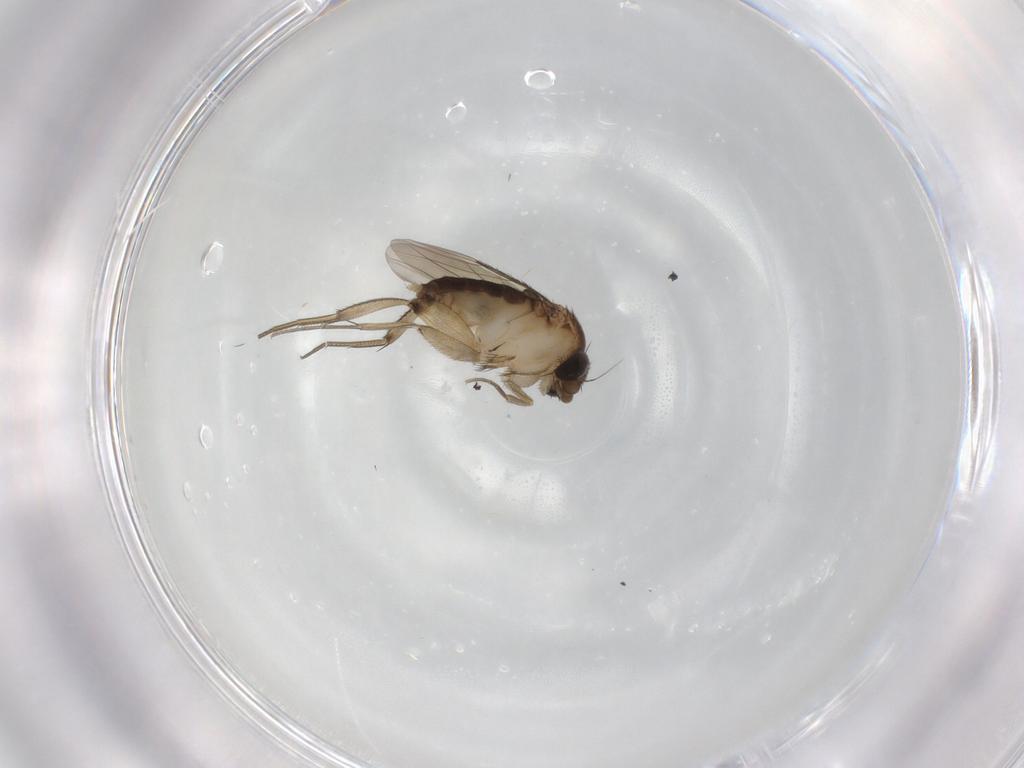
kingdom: Animalia
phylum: Arthropoda
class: Insecta
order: Diptera
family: Phoridae
